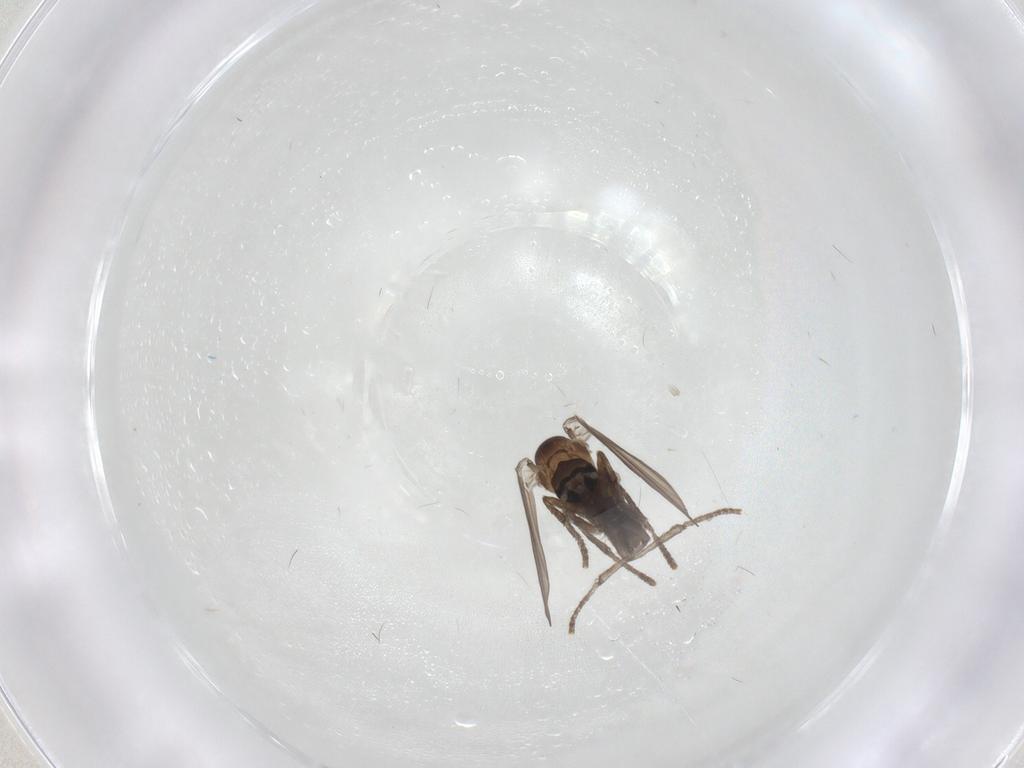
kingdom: Animalia
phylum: Arthropoda
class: Insecta
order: Diptera
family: Psychodidae
